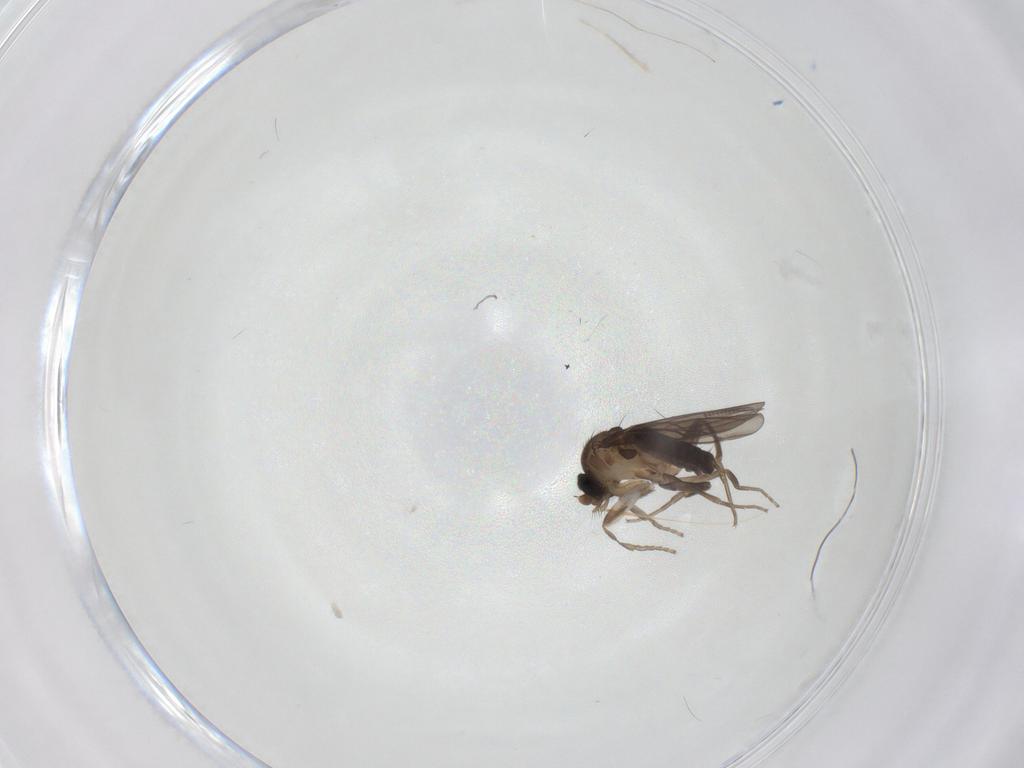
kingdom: Animalia
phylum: Arthropoda
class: Insecta
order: Diptera
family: Cecidomyiidae
